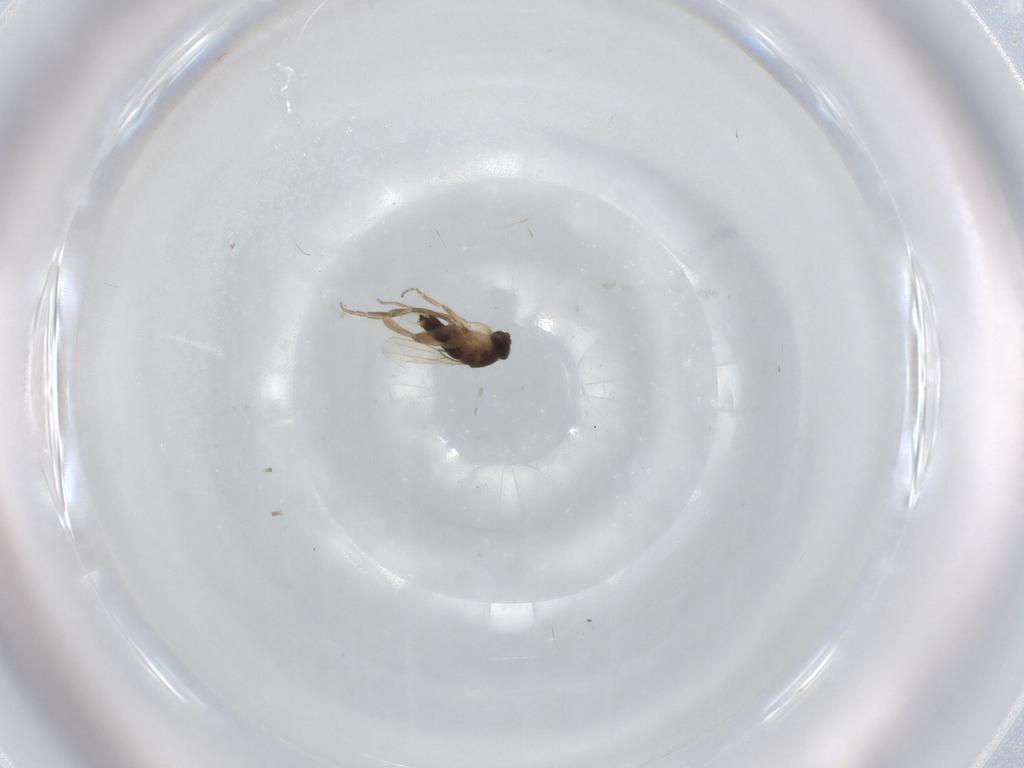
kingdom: Animalia
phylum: Arthropoda
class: Insecta
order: Diptera
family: Phoridae
